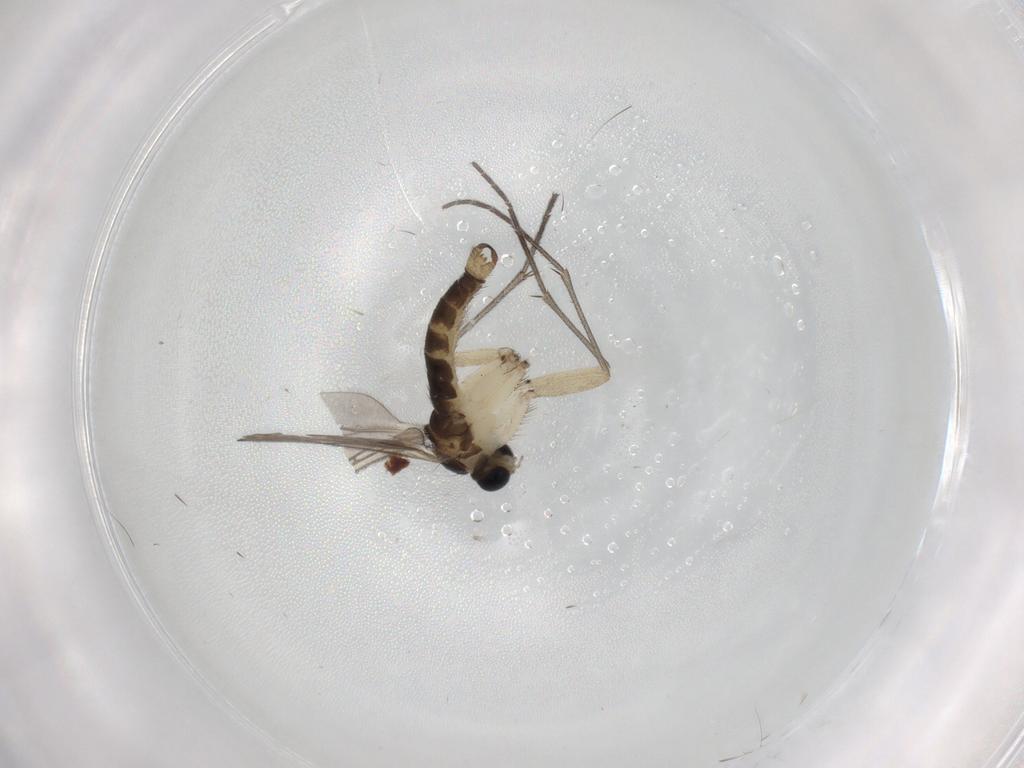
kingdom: Animalia
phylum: Arthropoda
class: Insecta
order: Diptera
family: Sciaridae
